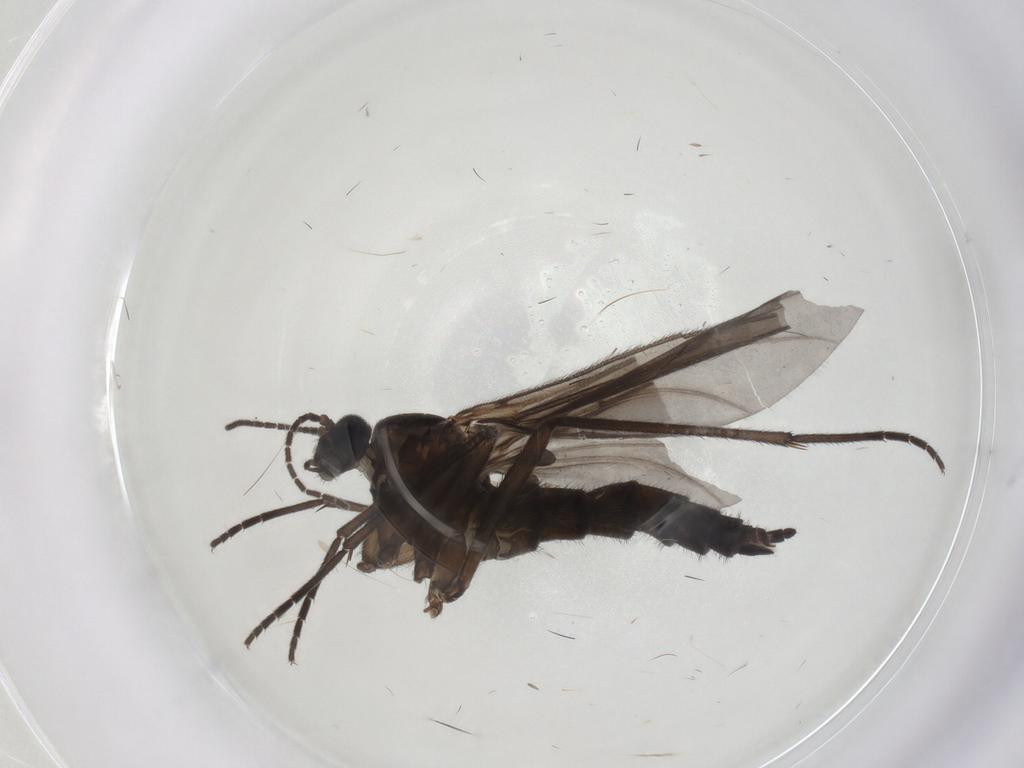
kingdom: Animalia
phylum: Arthropoda
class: Insecta
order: Diptera
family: Sciaridae
